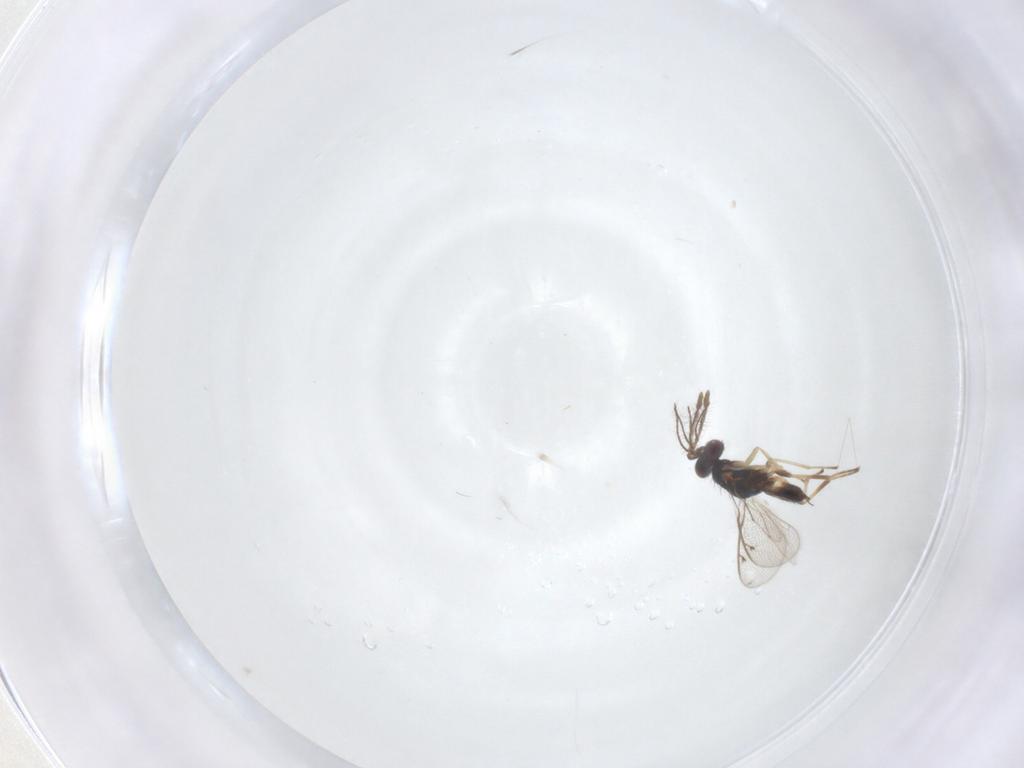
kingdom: Animalia
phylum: Arthropoda
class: Insecta
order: Hymenoptera
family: Eulophidae
